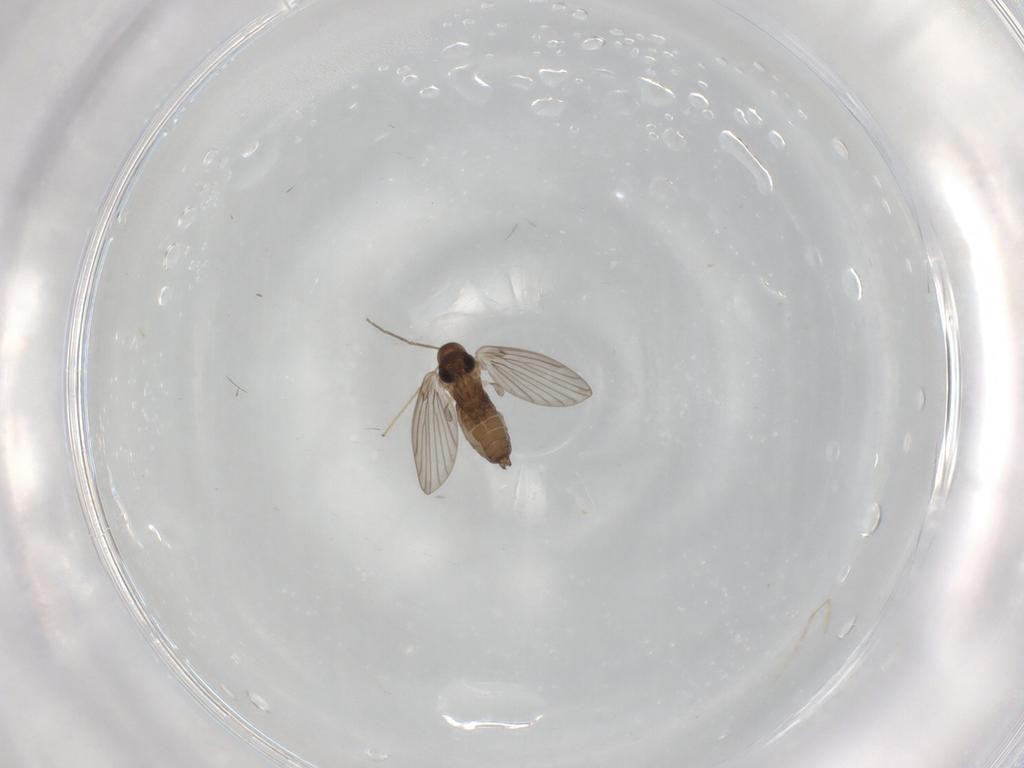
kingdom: Animalia
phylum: Arthropoda
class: Insecta
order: Diptera
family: Chironomidae
